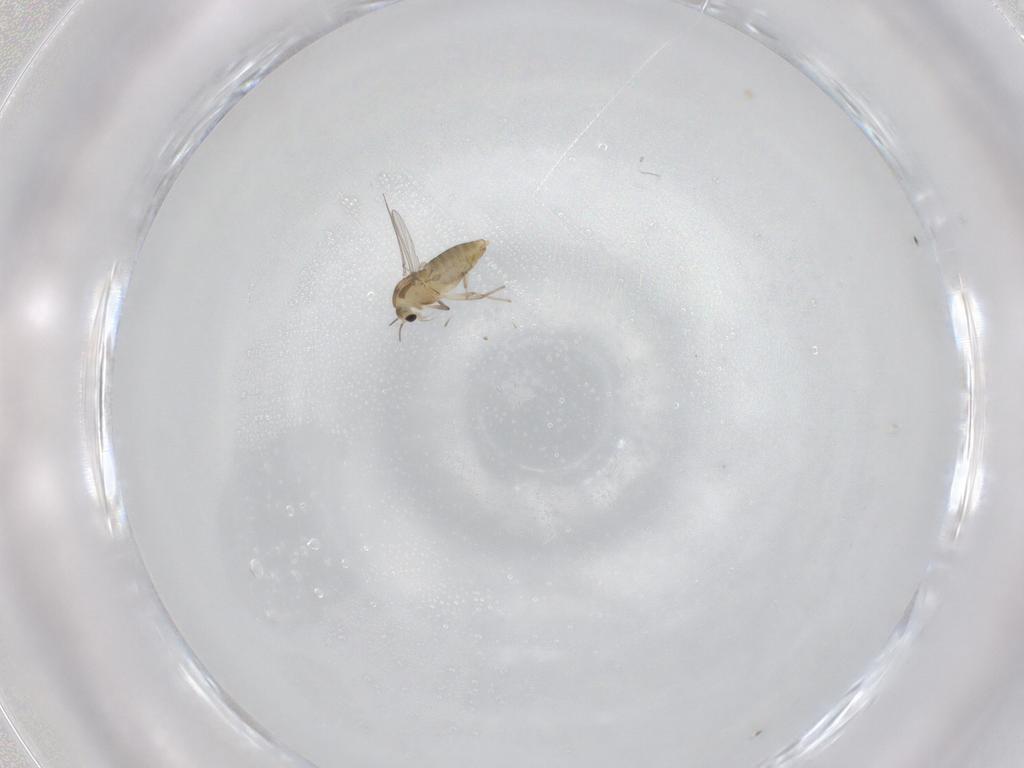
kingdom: Animalia
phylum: Arthropoda
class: Insecta
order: Diptera
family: Chironomidae
